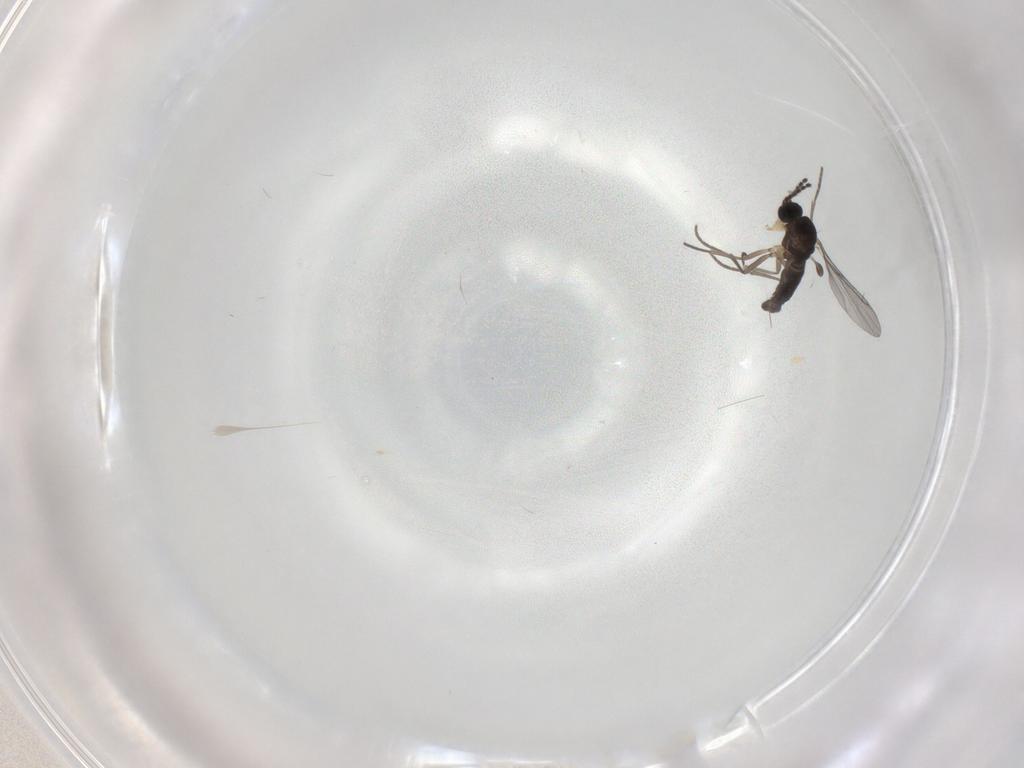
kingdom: Animalia
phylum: Arthropoda
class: Insecta
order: Diptera
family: Sciaridae
